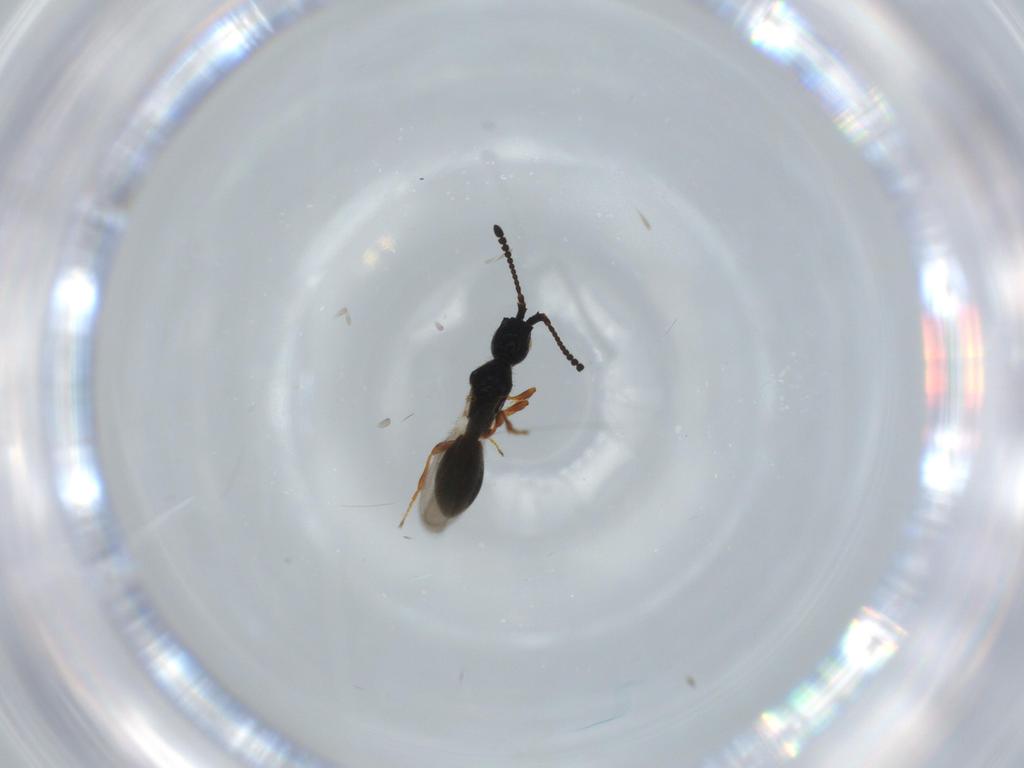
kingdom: Animalia
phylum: Arthropoda
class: Insecta
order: Hymenoptera
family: Diapriidae
